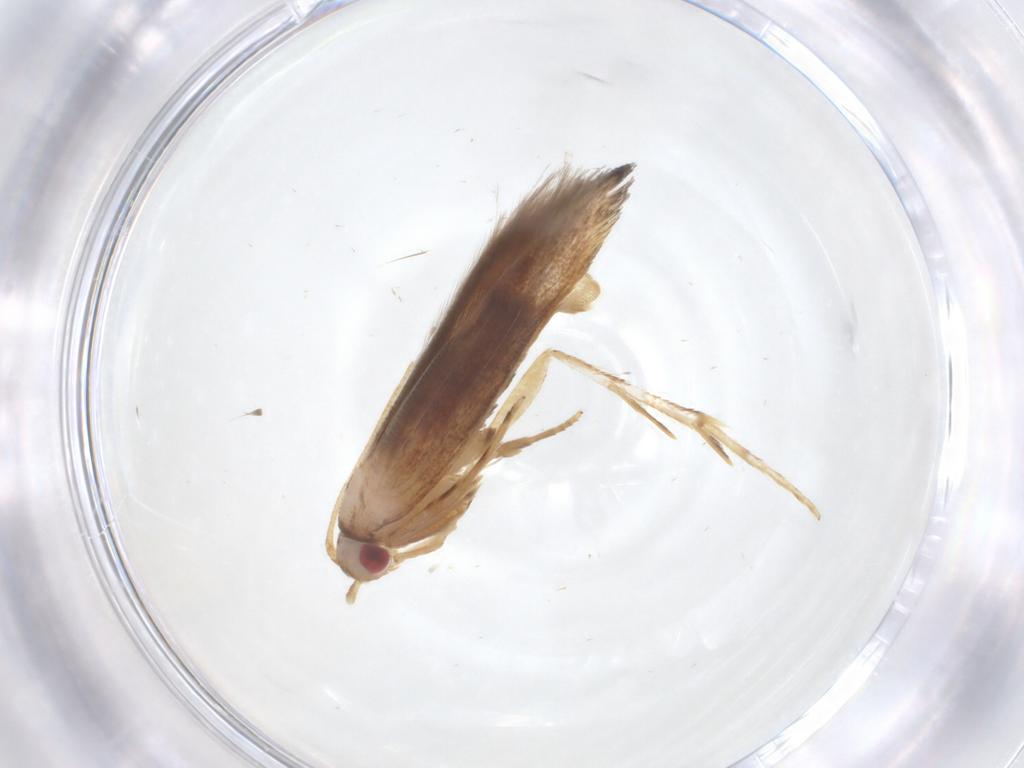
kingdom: Animalia
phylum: Arthropoda
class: Insecta
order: Lepidoptera
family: Cosmopterigidae
